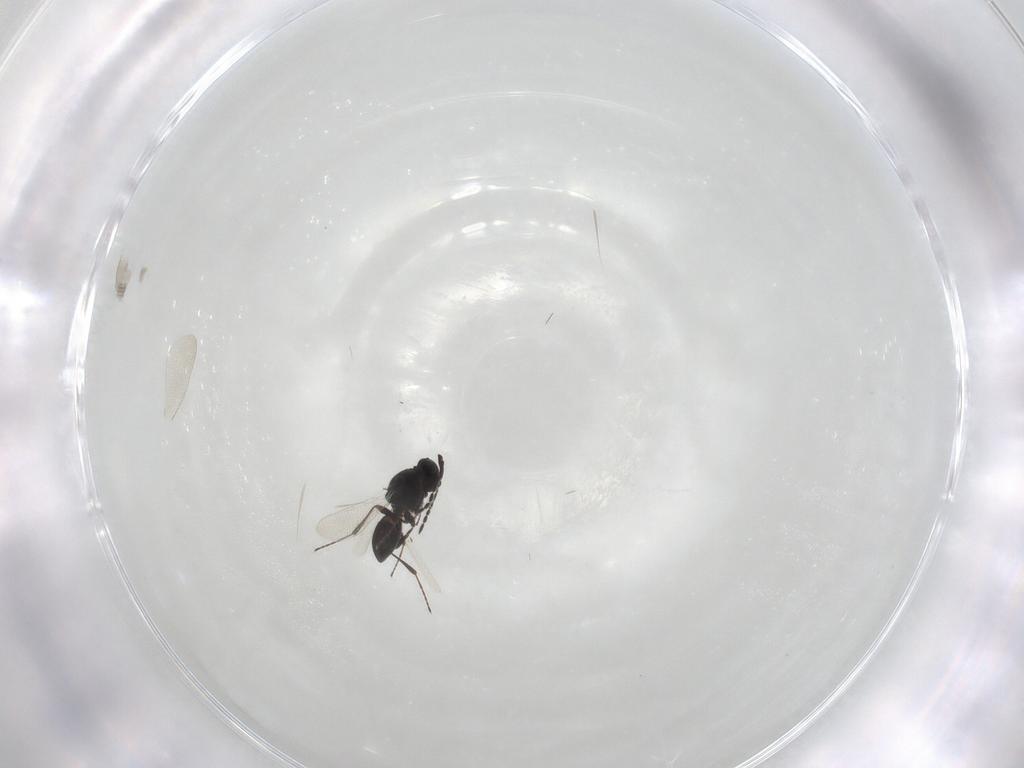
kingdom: Animalia
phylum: Arthropoda
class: Insecta
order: Hymenoptera
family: Platygastridae
